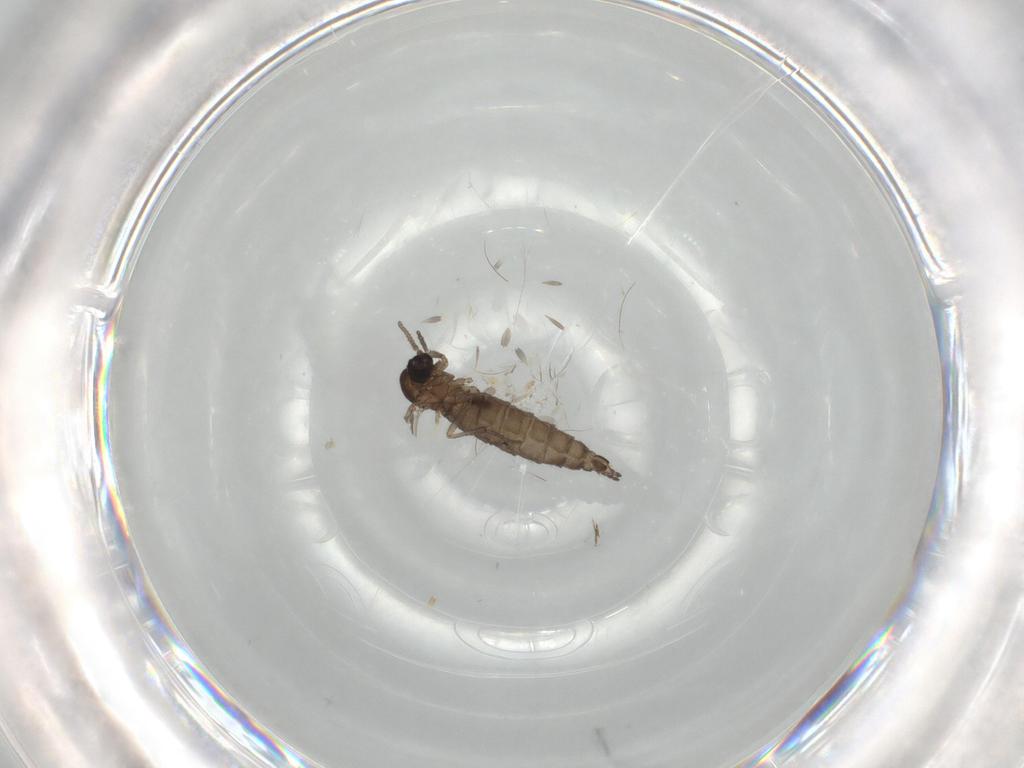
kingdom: Animalia
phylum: Arthropoda
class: Insecta
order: Diptera
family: Sciaridae
